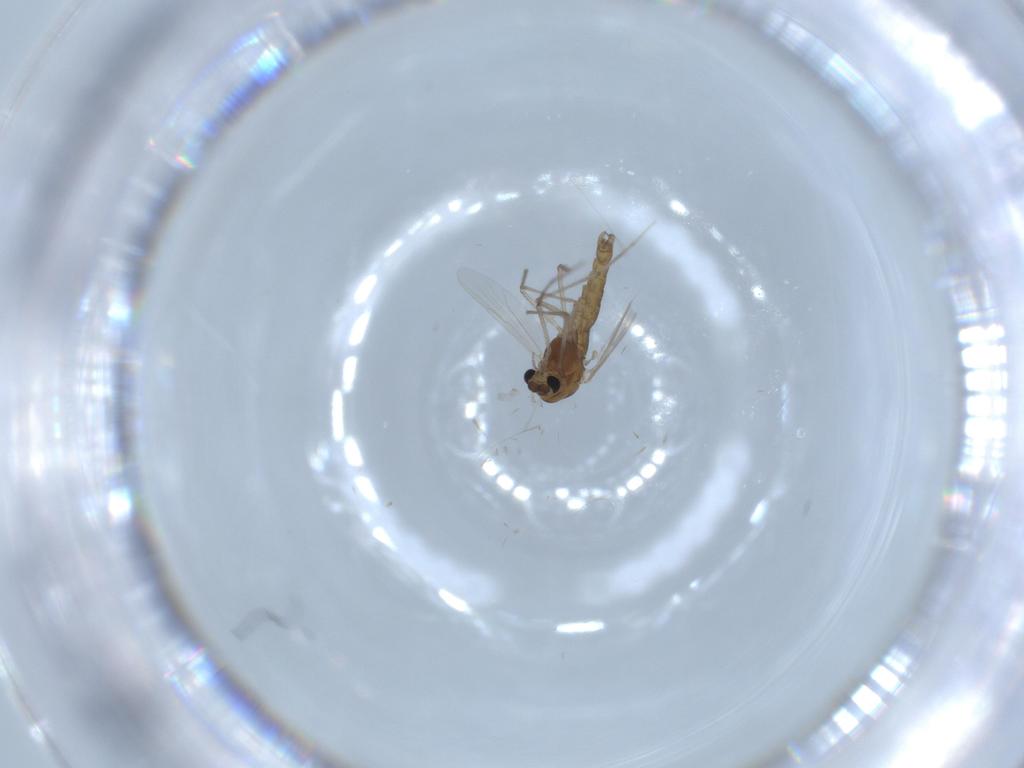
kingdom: Animalia
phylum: Arthropoda
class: Insecta
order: Diptera
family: Chironomidae
